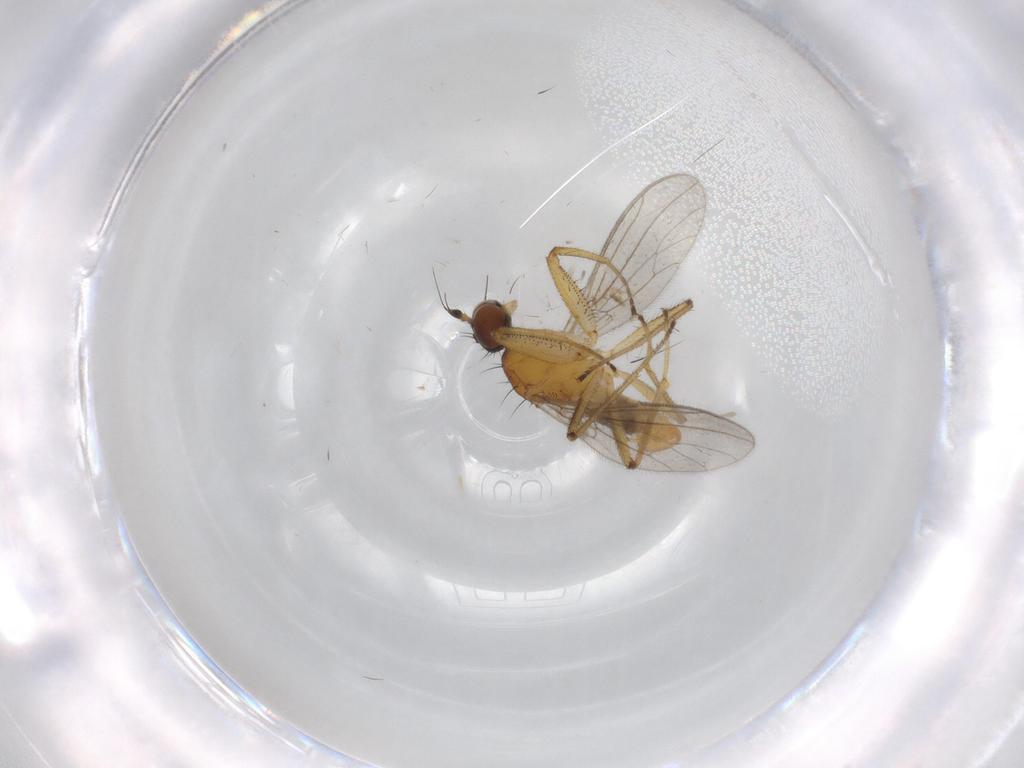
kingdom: Animalia
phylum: Arthropoda
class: Insecta
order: Diptera
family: Empididae
